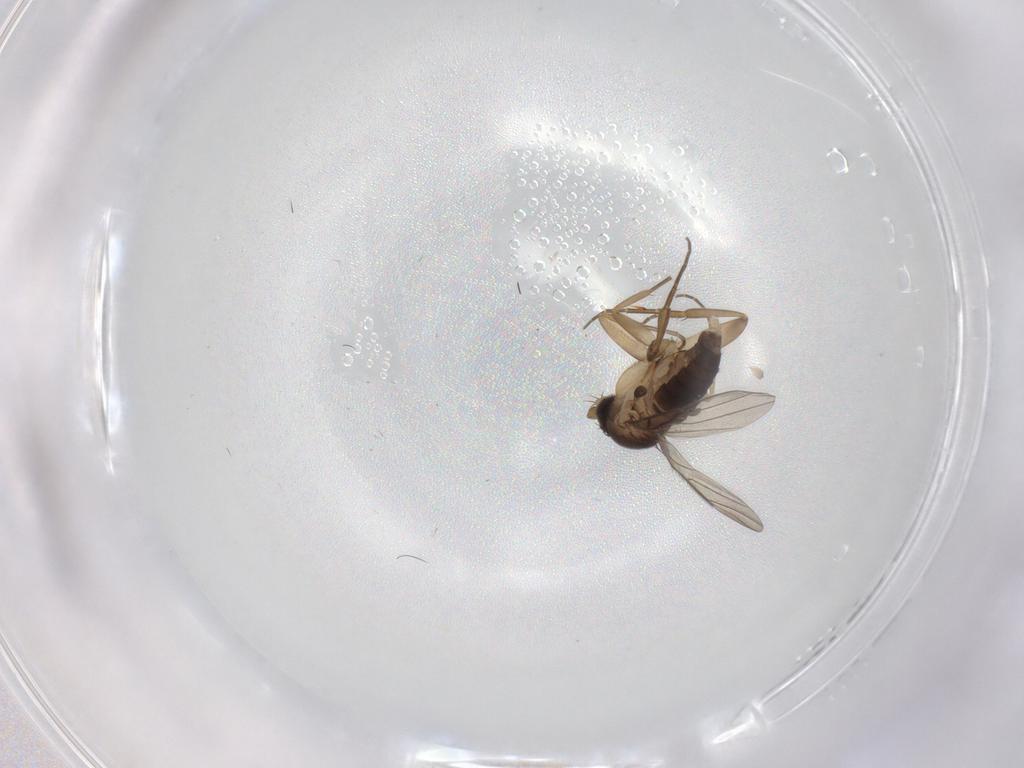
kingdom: Animalia
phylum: Arthropoda
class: Insecta
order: Diptera
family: Phoridae
